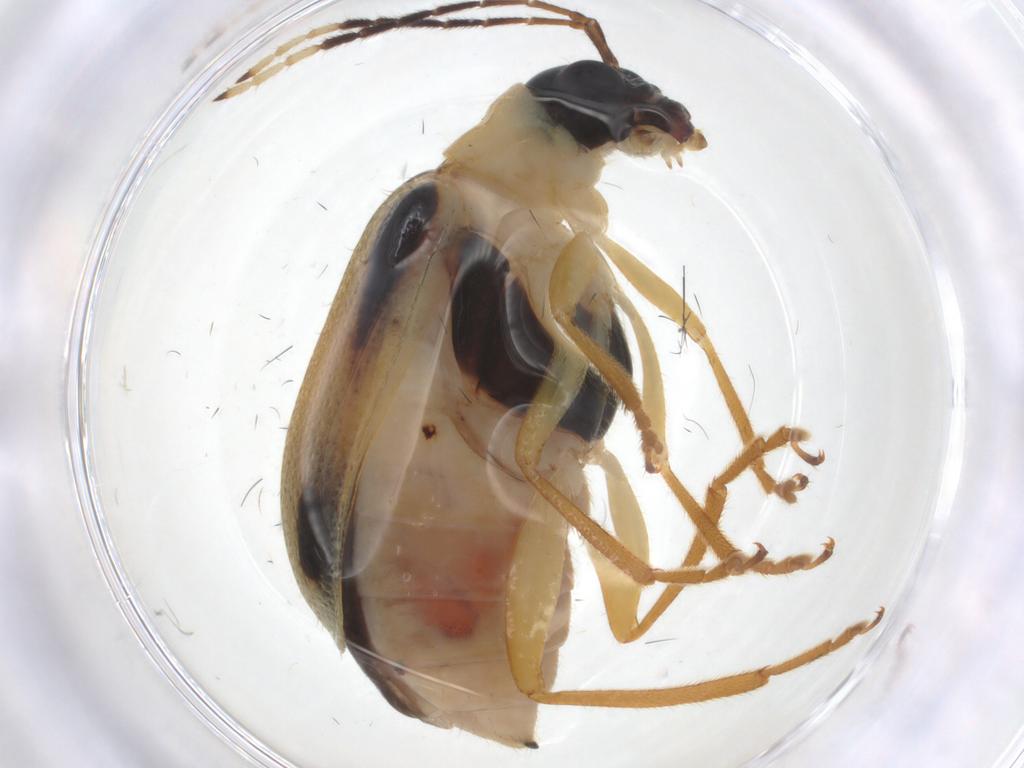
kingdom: Animalia
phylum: Arthropoda
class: Insecta
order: Coleoptera
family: Chrysomelidae
